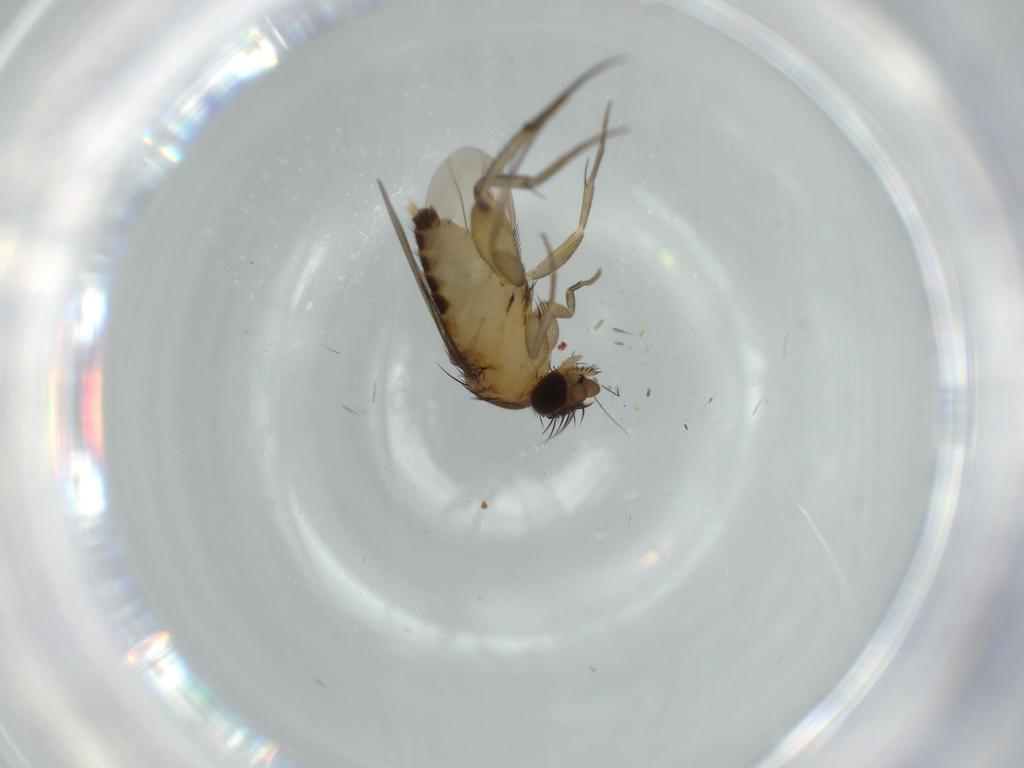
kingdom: Animalia
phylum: Arthropoda
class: Insecta
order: Diptera
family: Phoridae
